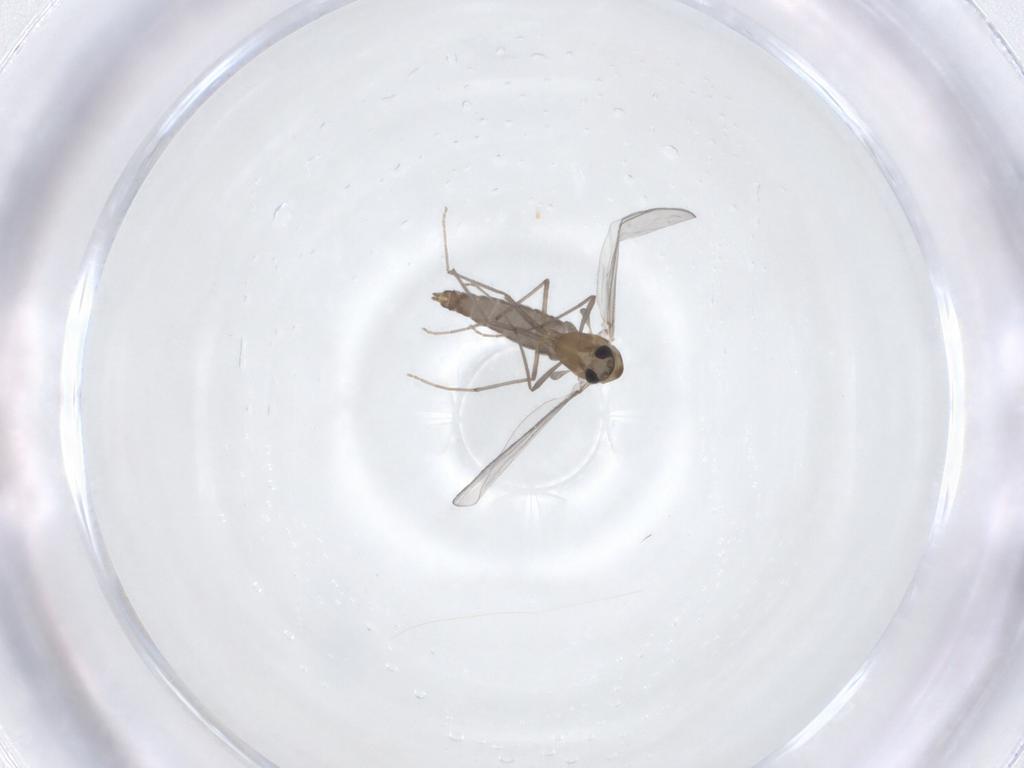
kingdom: Animalia
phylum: Arthropoda
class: Insecta
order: Diptera
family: Chironomidae
